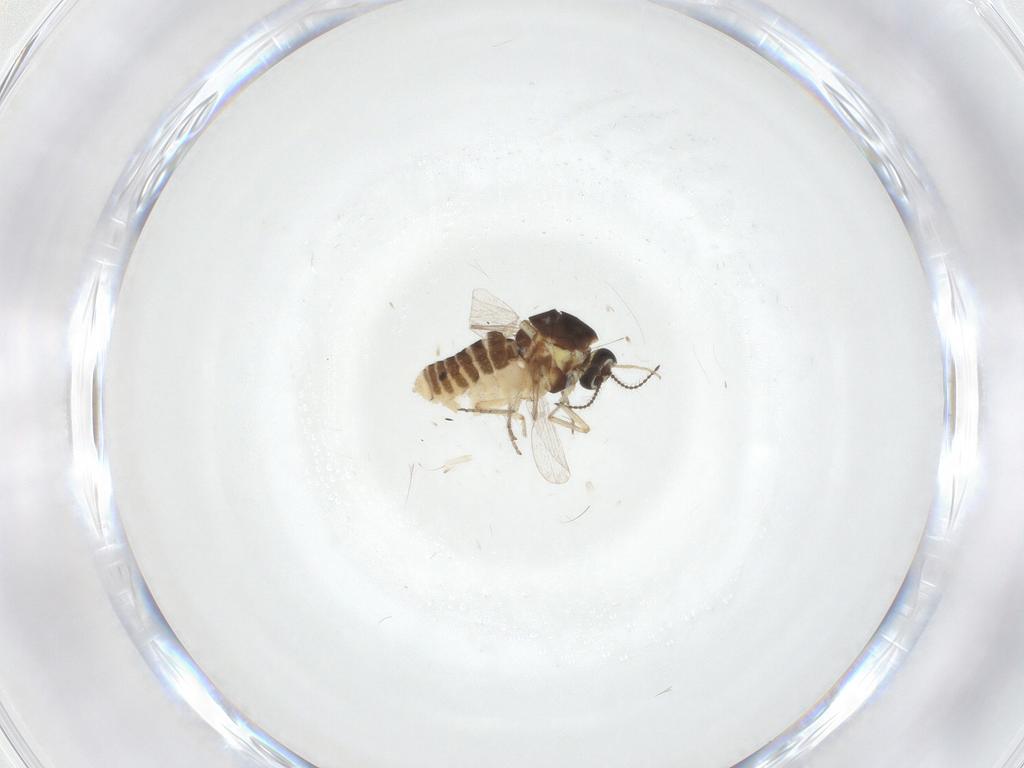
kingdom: Animalia
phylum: Arthropoda
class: Insecta
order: Diptera
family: Ceratopogonidae
